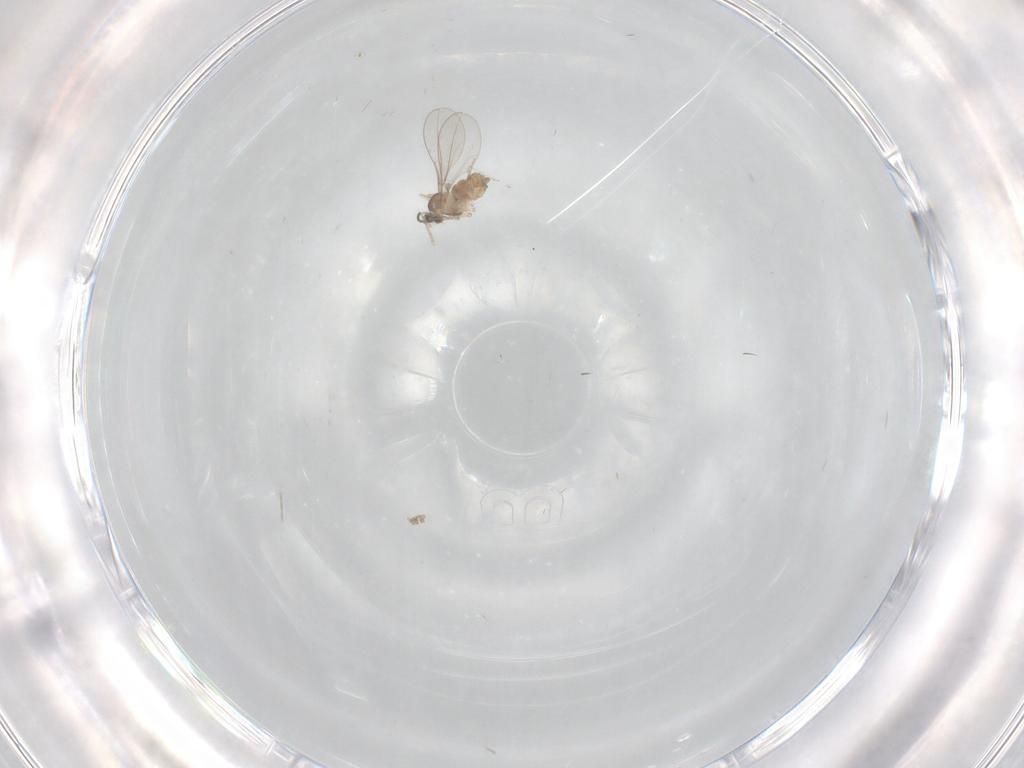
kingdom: Animalia
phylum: Arthropoda
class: Insecta
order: Diptera
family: Cecidomyiidae
